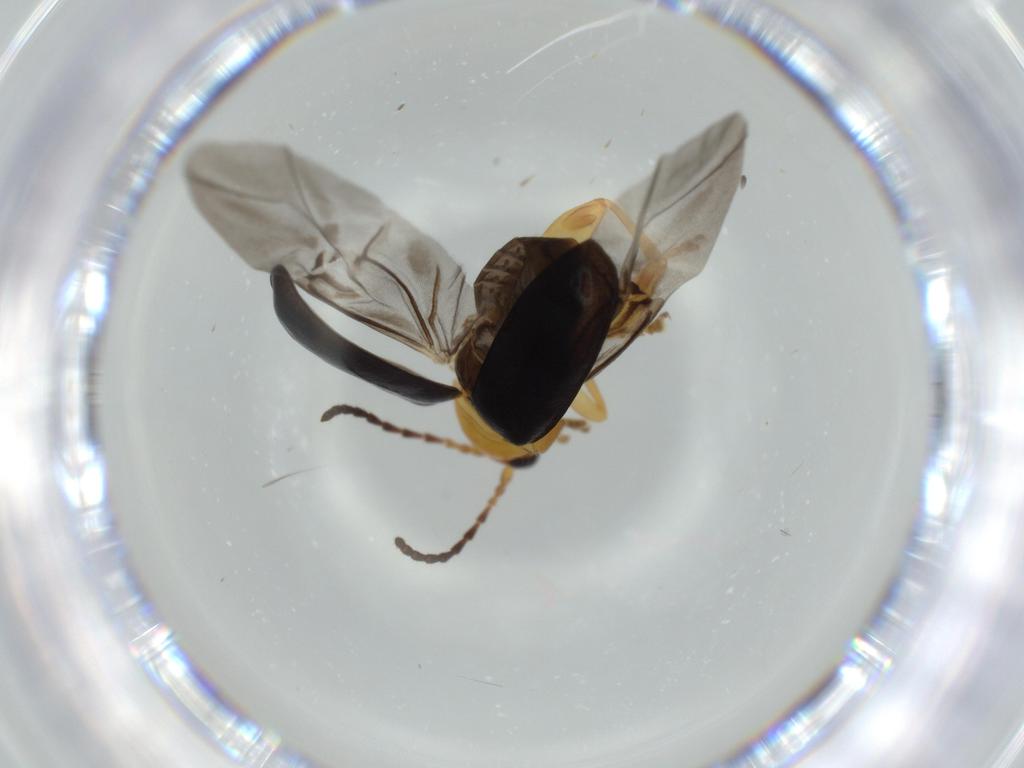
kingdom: Animalia
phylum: Arthropoda
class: Insecta
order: Coleoptera
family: Chrysomelidae
